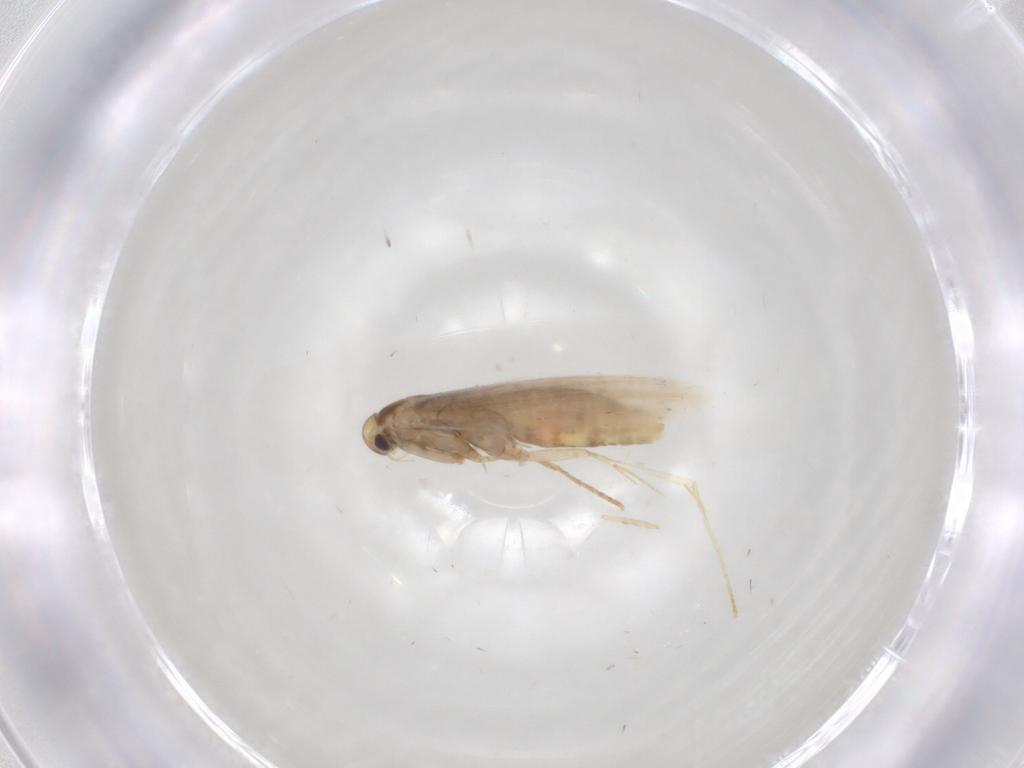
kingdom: Animalia
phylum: Arthropoda
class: Insecta
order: Lepidoptera
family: Gracillariidae
